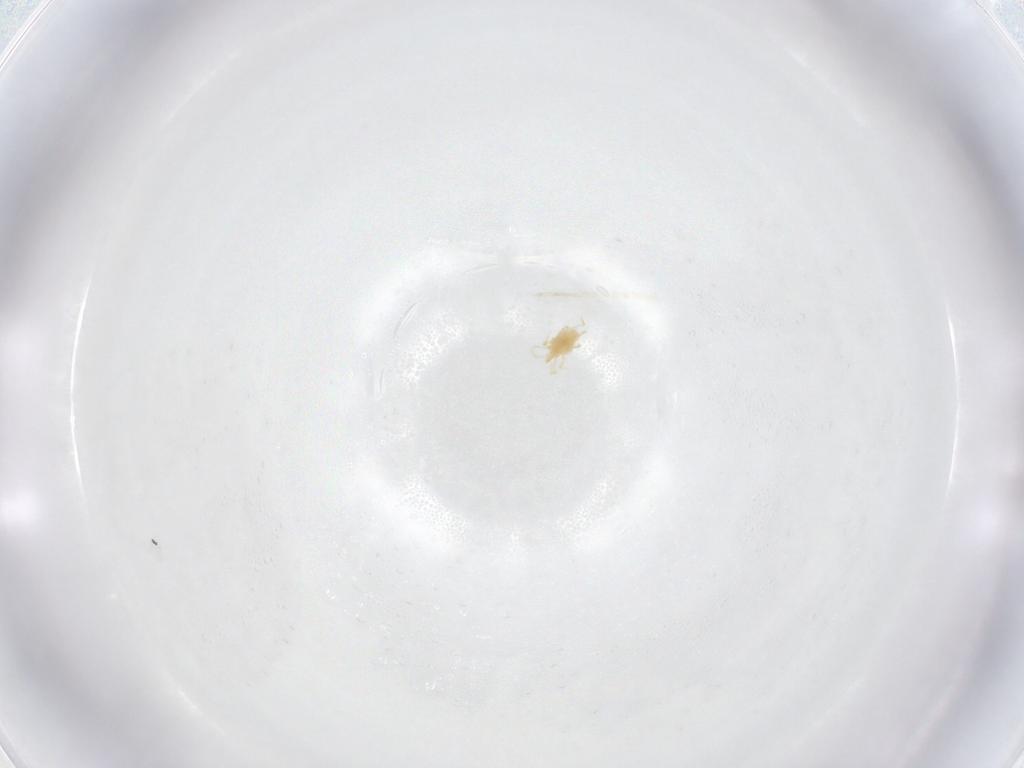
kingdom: Animalia
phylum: Arthropoda
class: Arachnida
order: Trombidiformes
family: Tetranychidae
